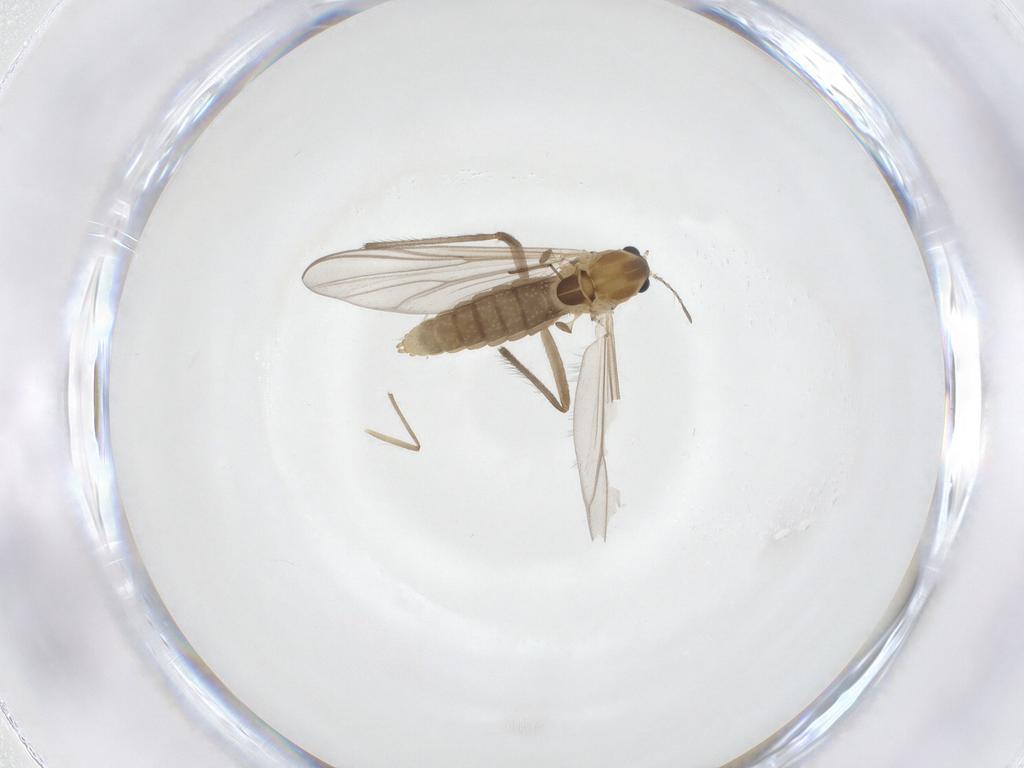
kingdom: Animalia
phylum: Arthropoda
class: Insecta
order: Diptera
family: Chironomidae
